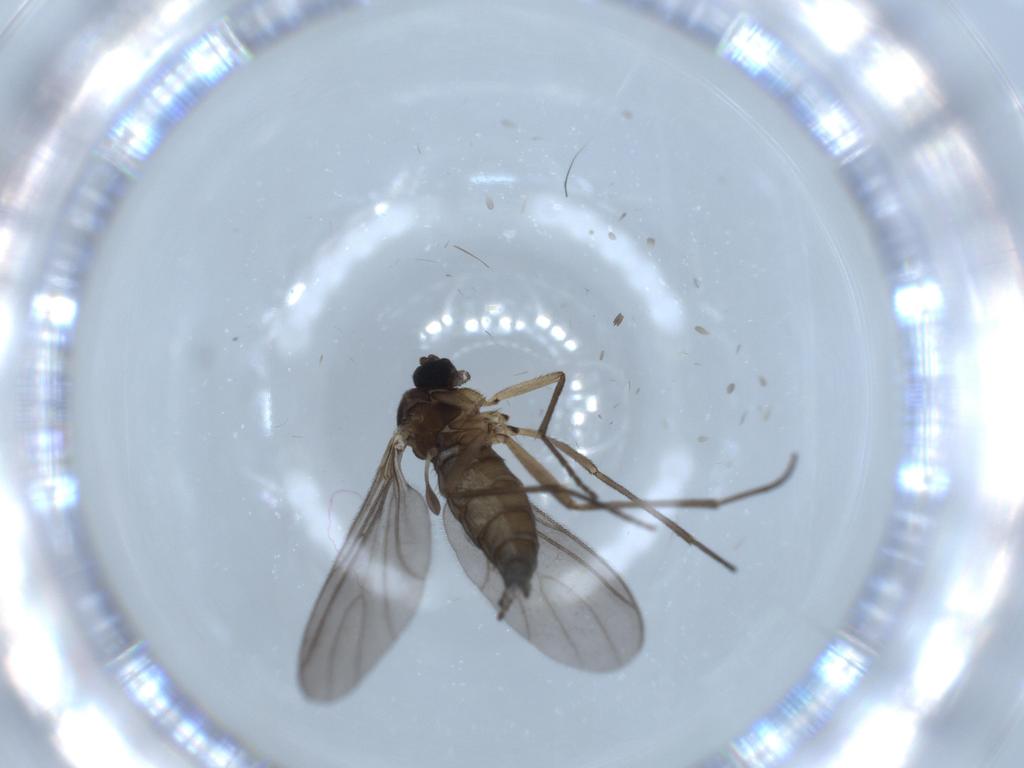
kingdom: Animalia
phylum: Arthropoda
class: Insecta
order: Diptera
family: Sciaridae
